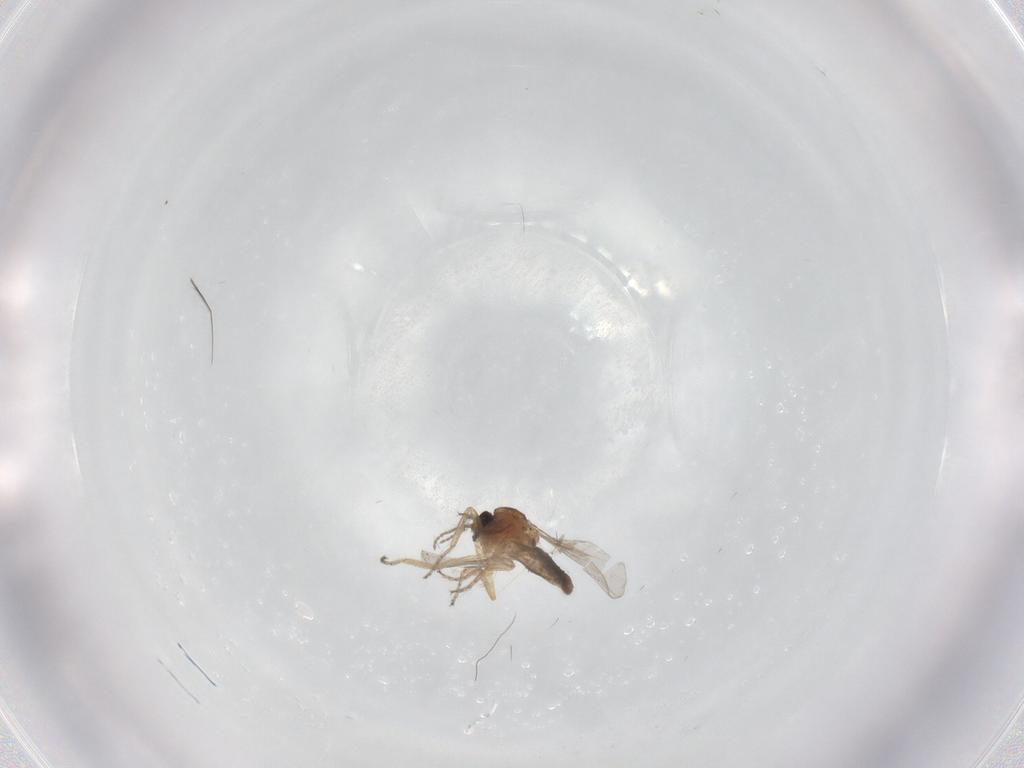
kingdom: Animalia
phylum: Arthropoda
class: Insecta
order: Diptera
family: Ceratopogonidae
